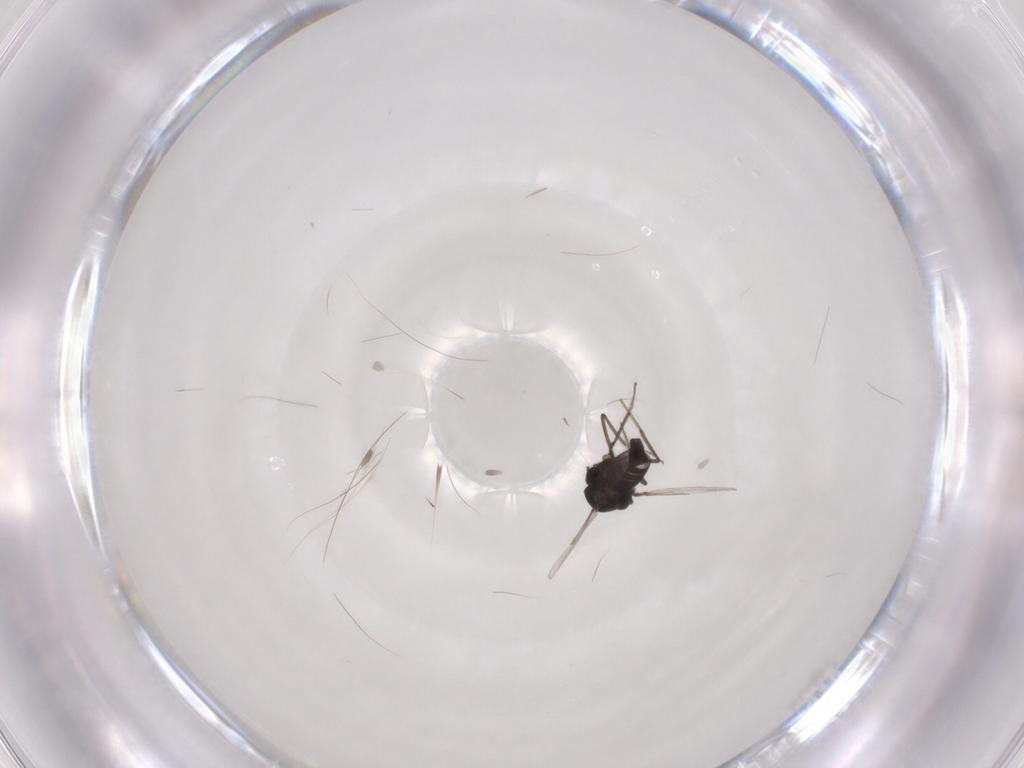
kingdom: Animalia
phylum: Arthropoda
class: Insecta
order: Diptera
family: Ceratopogonidae
